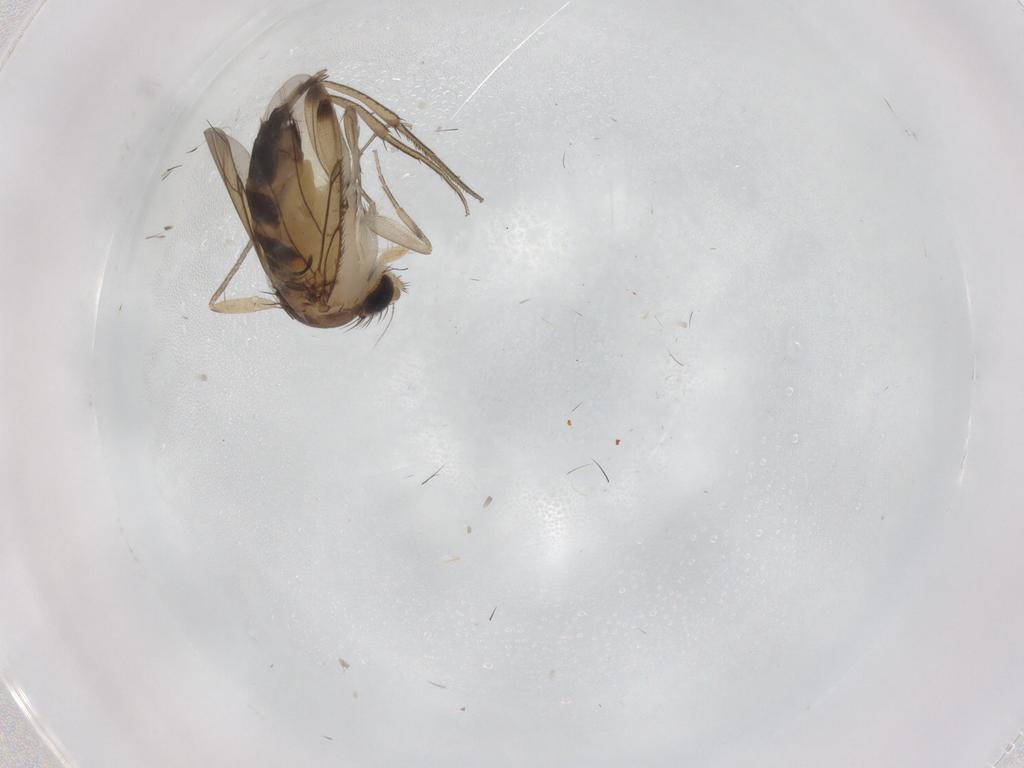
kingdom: Animalia
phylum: Arthropoda
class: Insecta
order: Diptera
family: Phoridae
